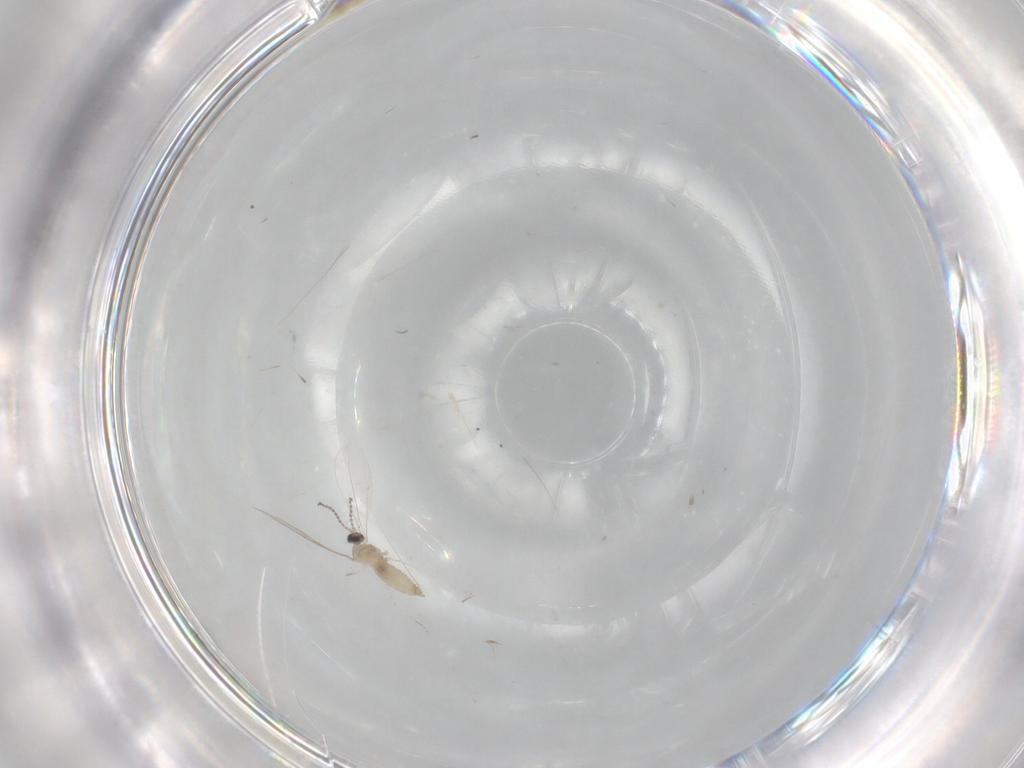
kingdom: Animalia
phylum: Arthropoda
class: Insecta
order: Diptera
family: Cecidomyiidae
